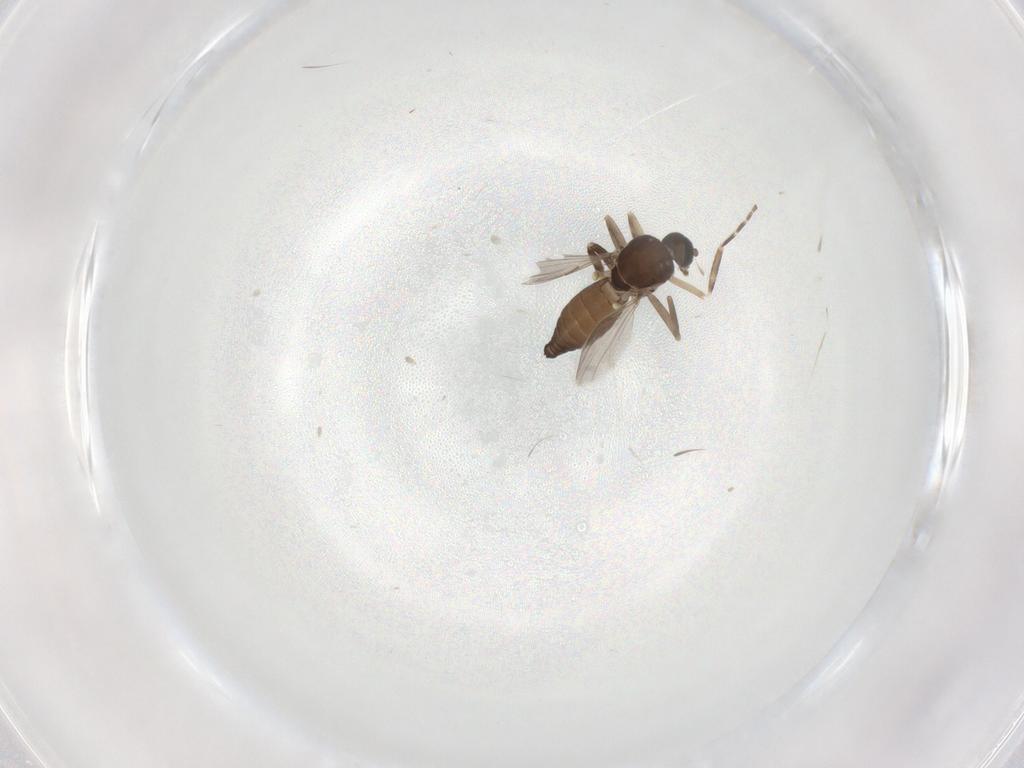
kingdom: Animalia
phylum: Arthropoda
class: Insecta
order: Diptera
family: Ceratopogonidae
